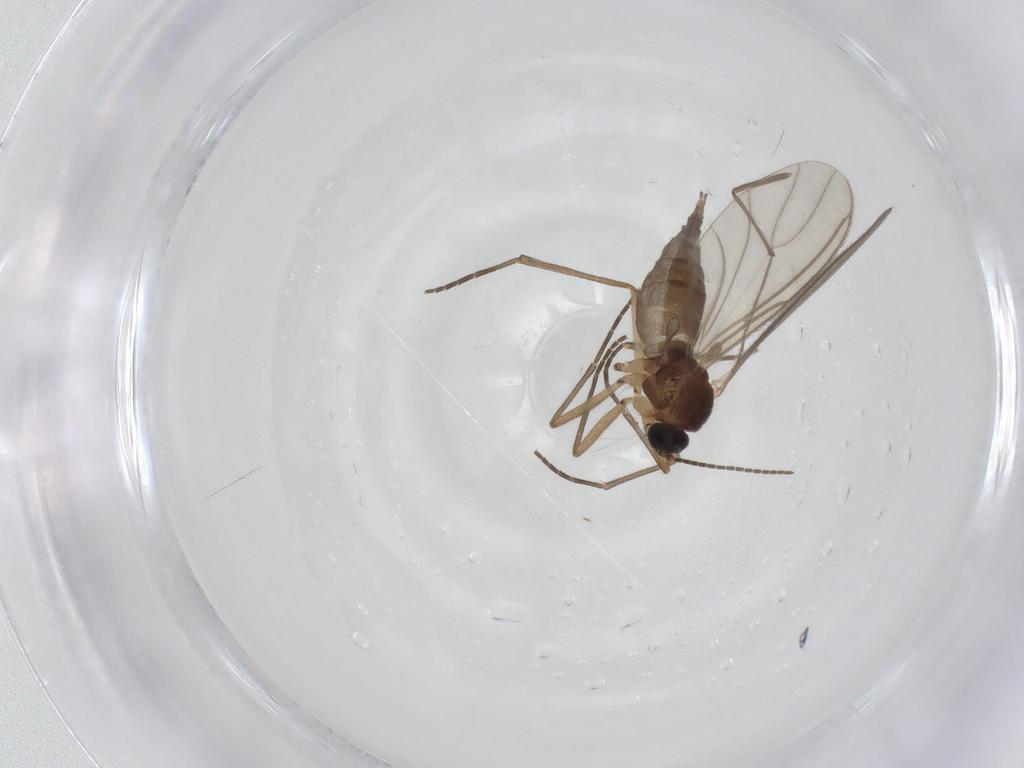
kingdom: Animalia
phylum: Arthropoda
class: Insecta
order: Diptera
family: Sciaridae
